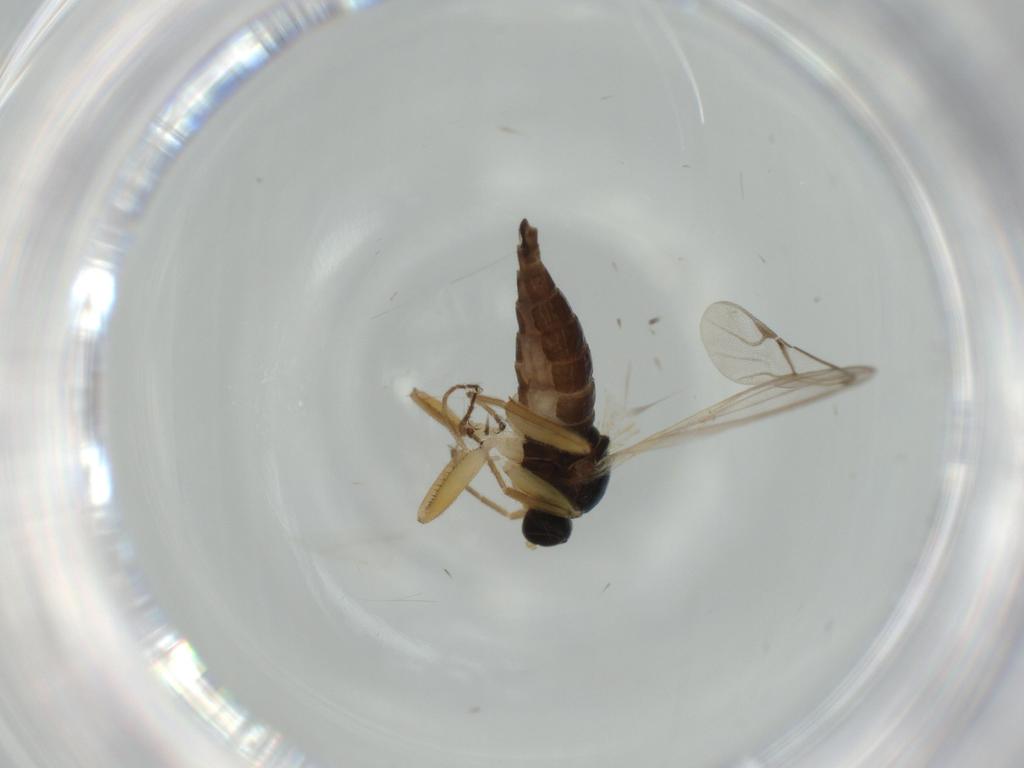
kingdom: Animalia
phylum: Arthropoda
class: Insecta
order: Diptera
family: Hybotidae
